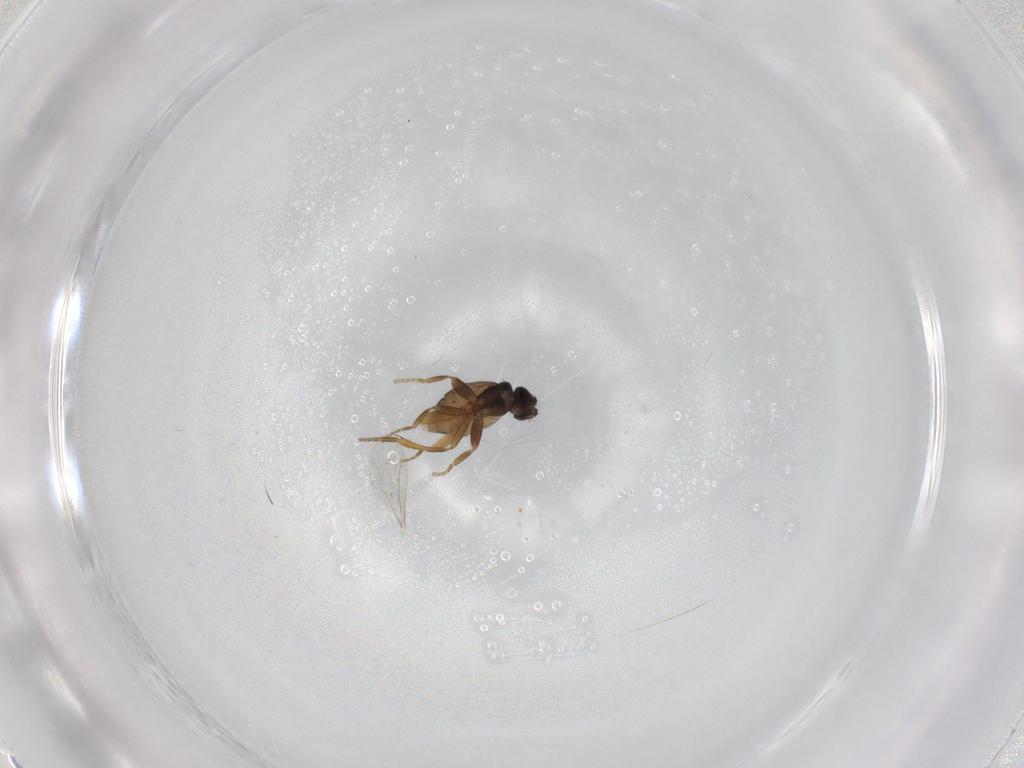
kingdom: Animalia
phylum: Arthropoda
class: Insecta
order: Diptera
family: Phoridae
